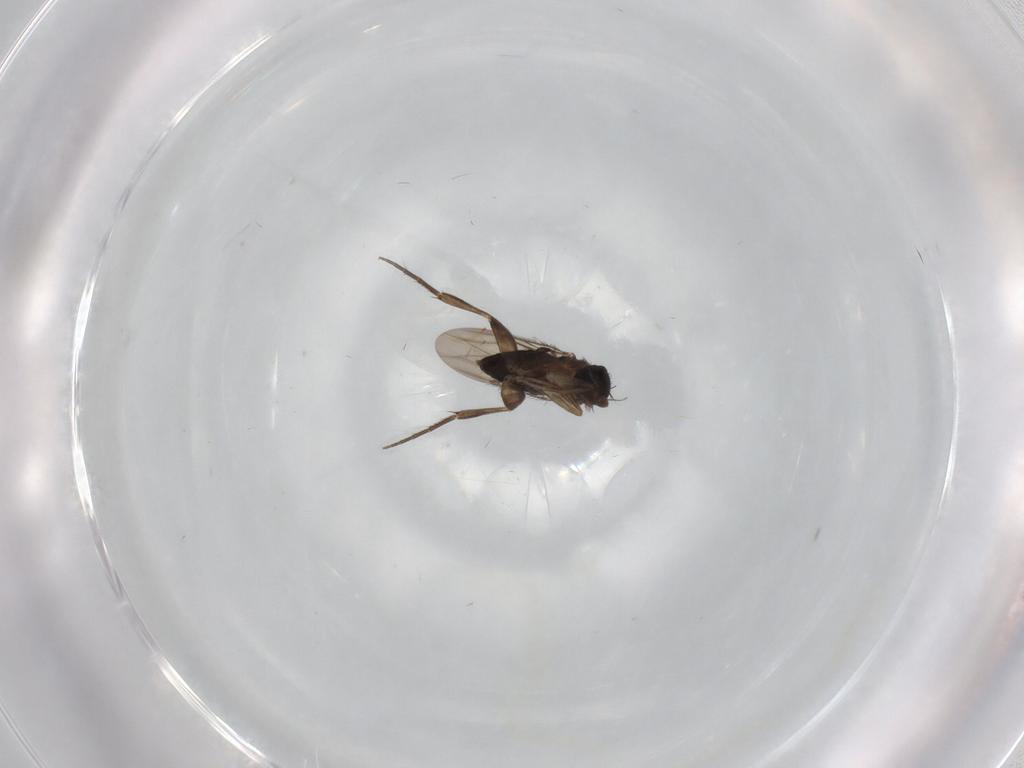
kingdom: Animalia
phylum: Arthropoda
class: Insecta
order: Diptera
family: Phoridae
